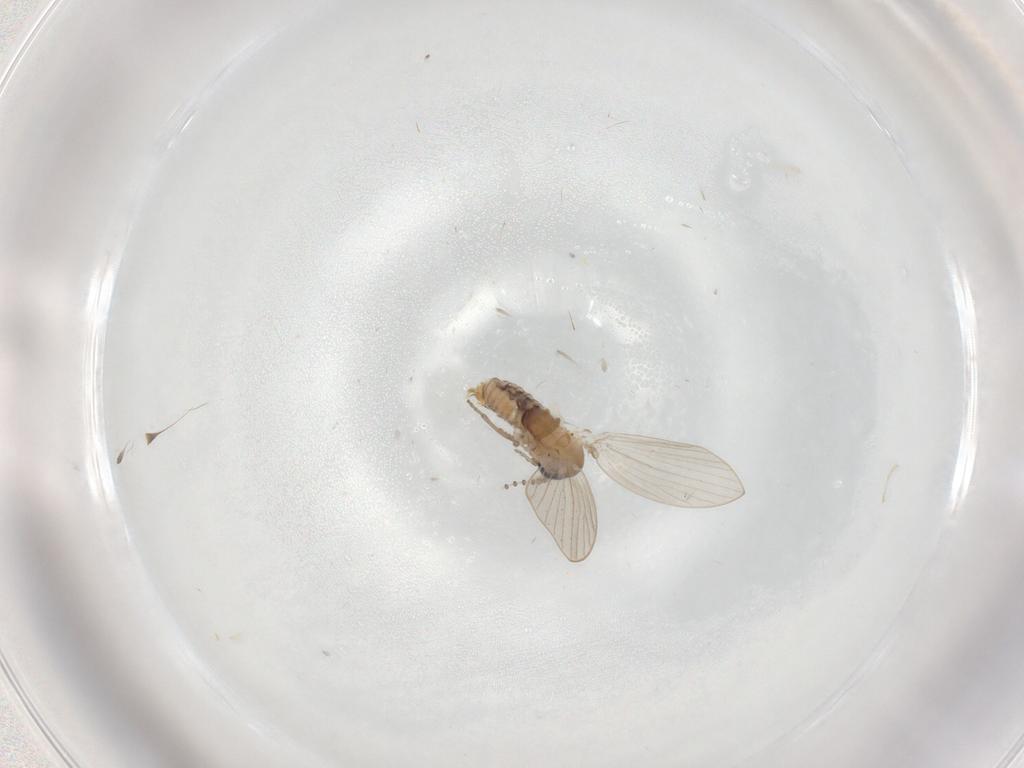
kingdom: Animalia
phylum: Arthropoda
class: Insecta
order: Diptera
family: Psychodidae
